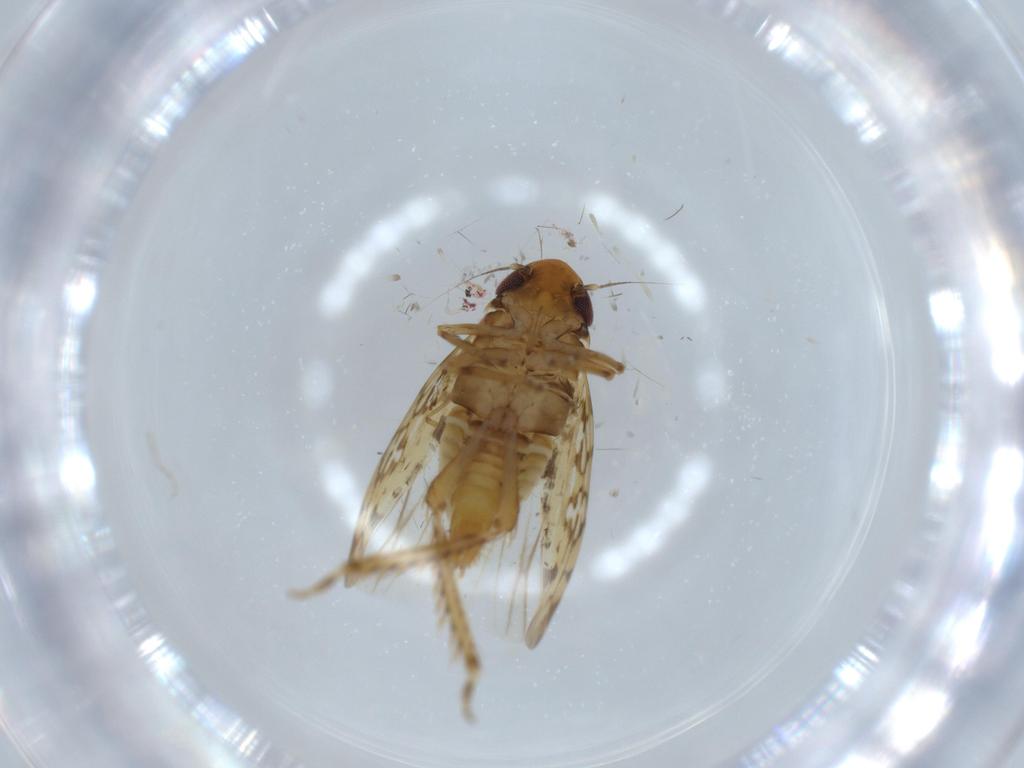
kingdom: Animalia
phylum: Arthropoda
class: Insecta
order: Hemiptera
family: Cicadellidae
